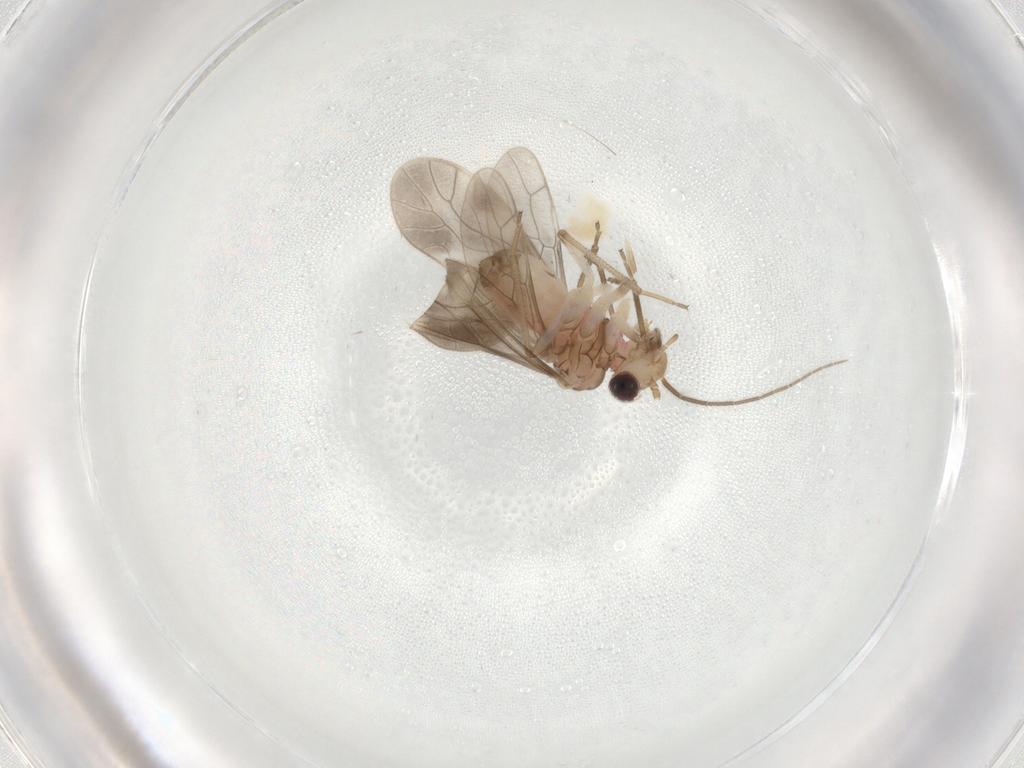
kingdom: Animalia
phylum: Arthropoda
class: Insecta
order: Psocodea
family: Caeciliusidae
